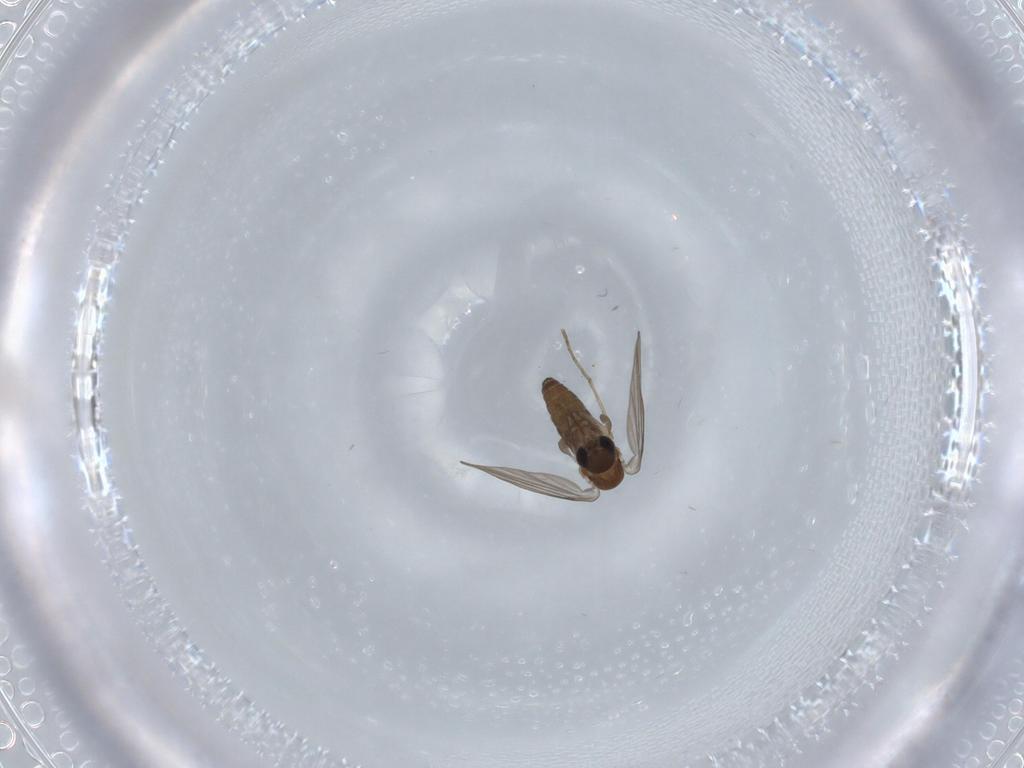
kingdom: Animalia
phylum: Arthropoda
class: Insecta
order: Diptera
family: Psychodidae
